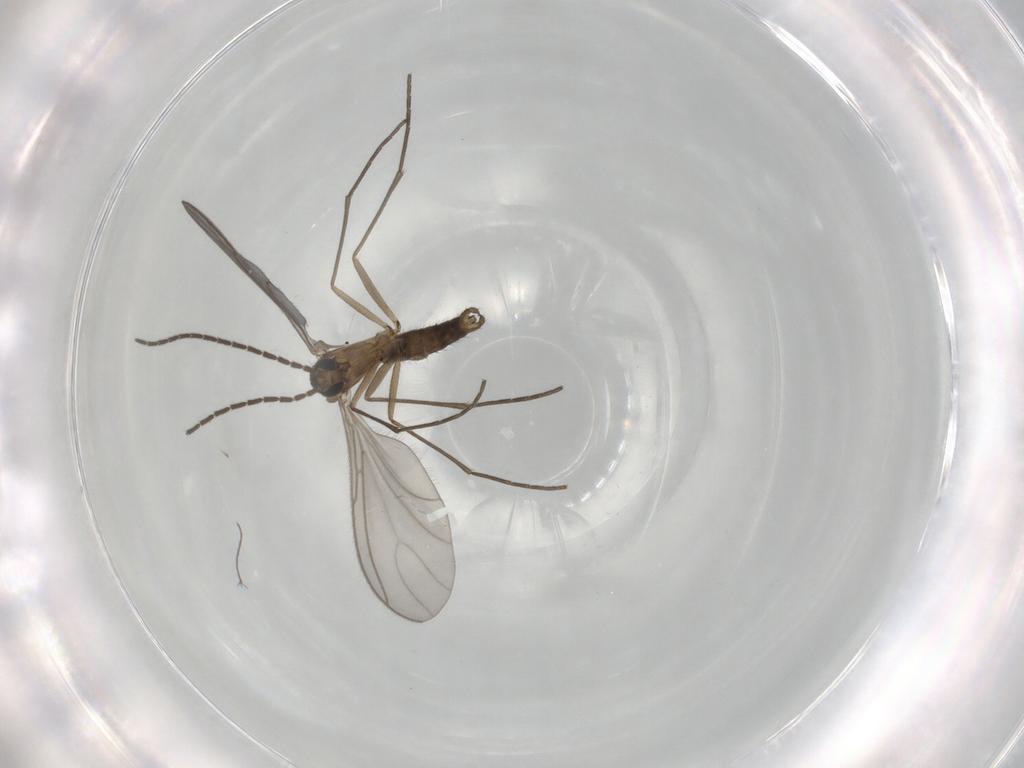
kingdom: Animalia
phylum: Arthropoda
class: Insecta
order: Diptera
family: Sciaridae
